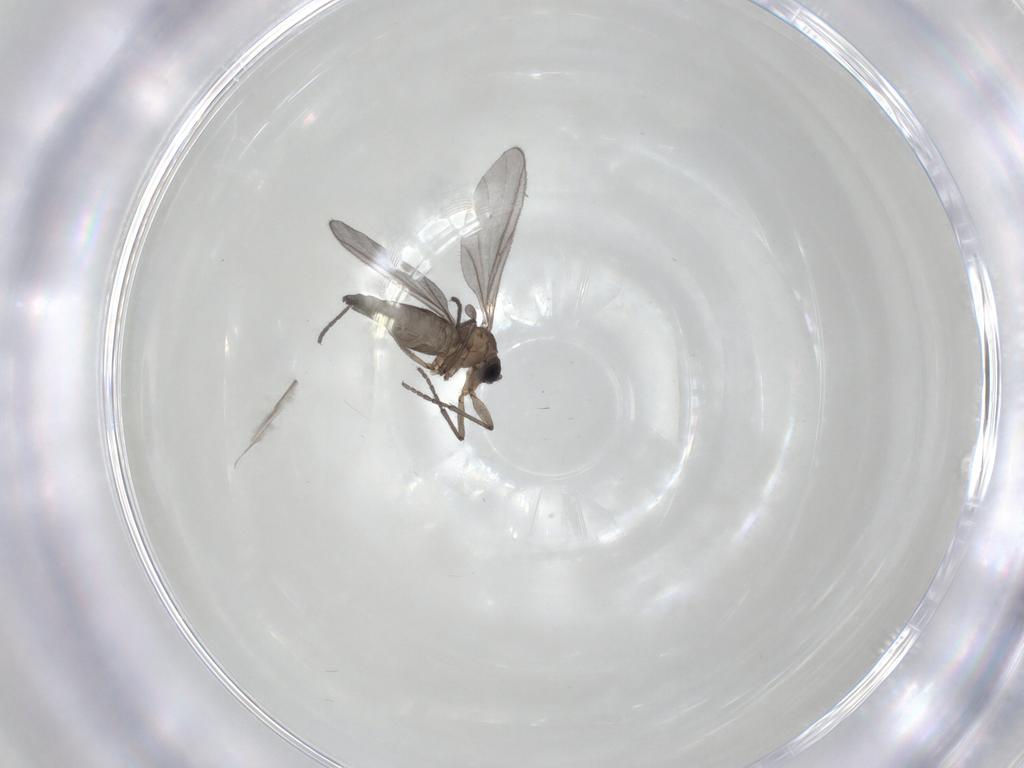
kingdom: Animalia
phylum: Arthropoda
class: Insecta
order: Diptera
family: Sciaridae
